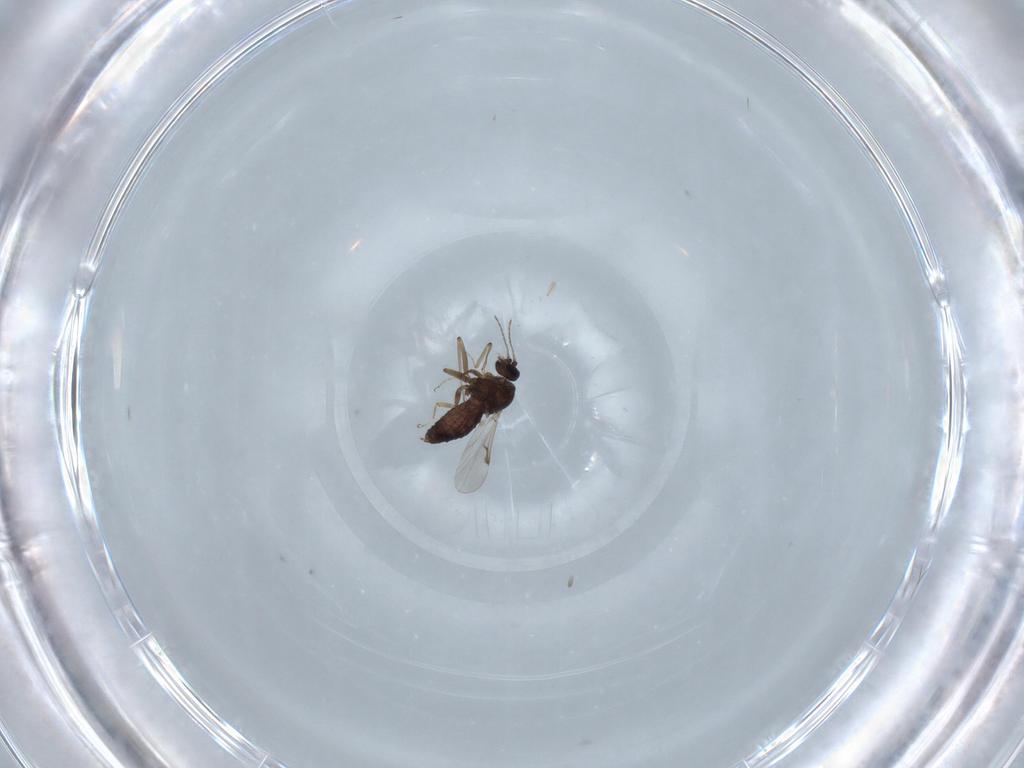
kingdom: Animalia
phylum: Arthropoda
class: Insecta
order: Diptera
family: Ceratopogonidae
